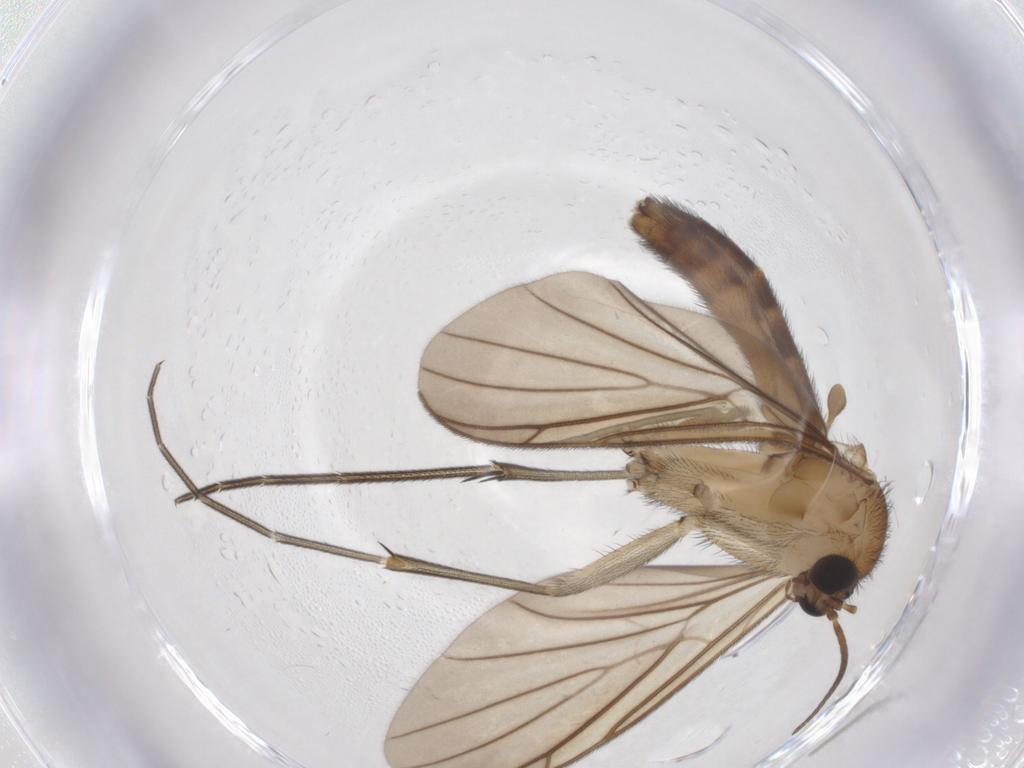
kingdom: Animalia
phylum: Arthropoda
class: Insecta
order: Diptera
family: Keroplatidae
